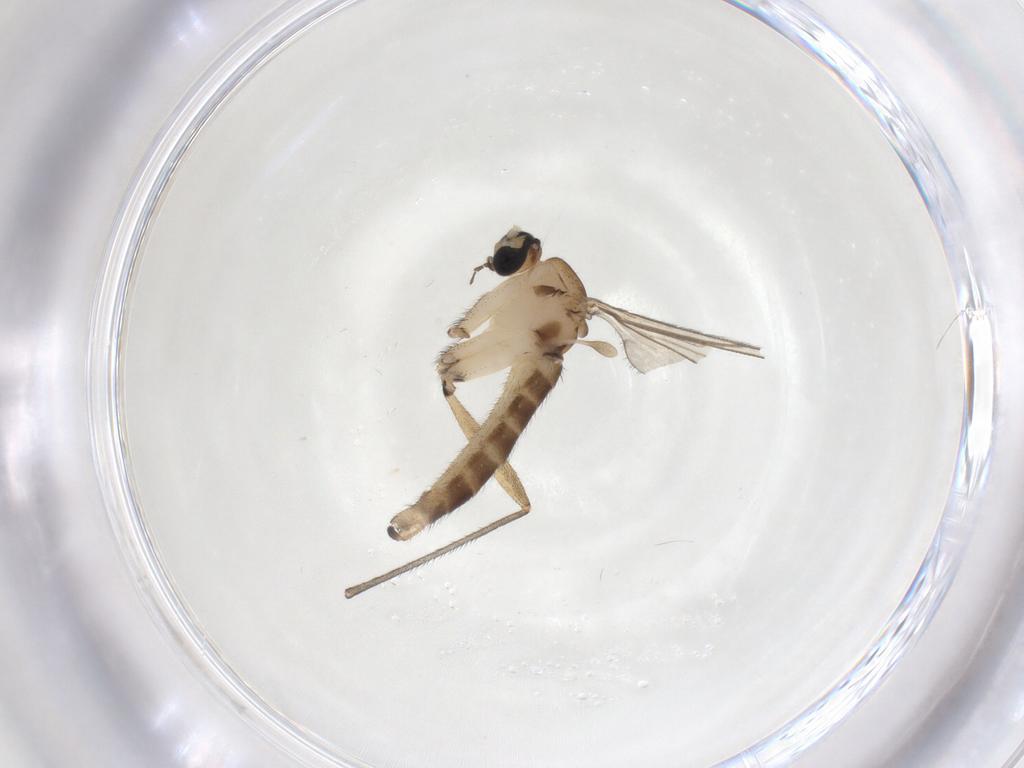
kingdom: Animalia
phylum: Arthropoda
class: Insecta
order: Diptera
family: Sciaridae
